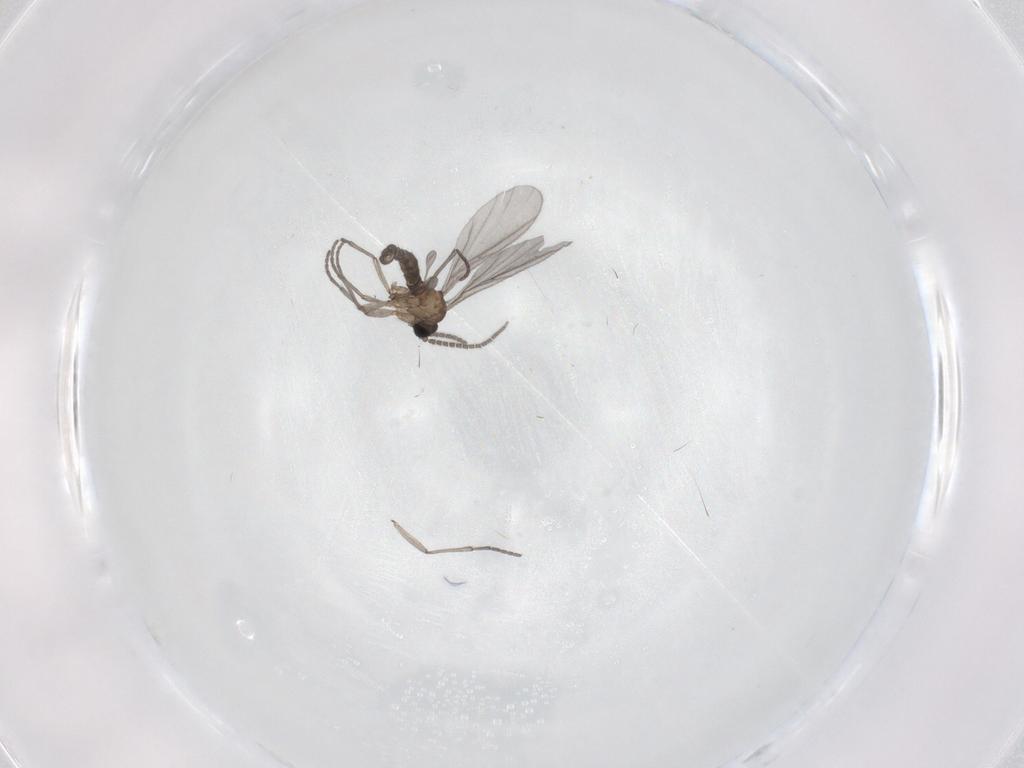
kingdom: Animalia
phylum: Arthropoda
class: Insecta
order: Diptera
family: Sciaridae
